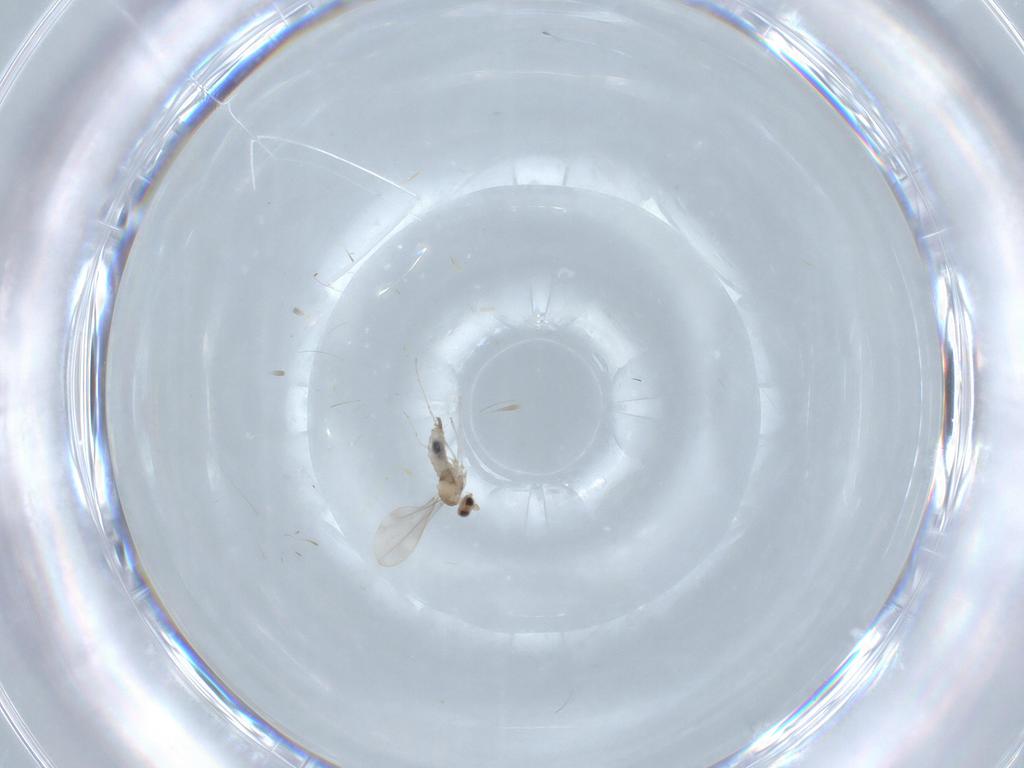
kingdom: Animalia
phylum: Arthropoda
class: Insecta
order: Diptera
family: Cecidomyiidae
